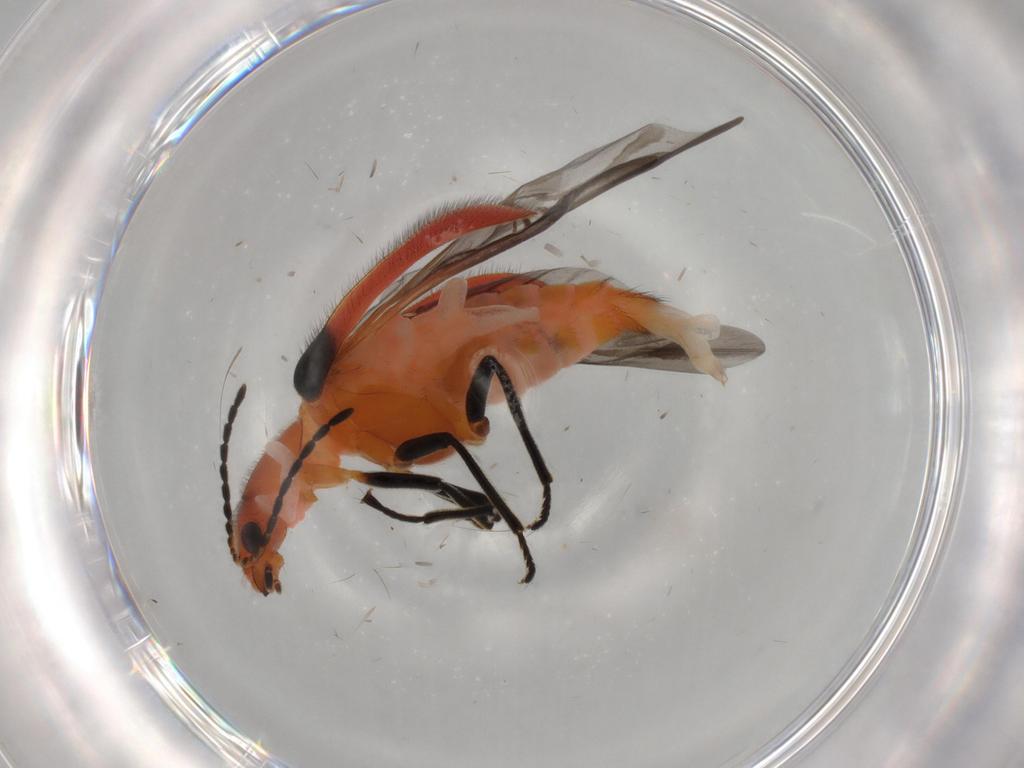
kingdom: Animalia
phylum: Arthropoda
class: Insecta
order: Coleoptera
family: Melyridae
